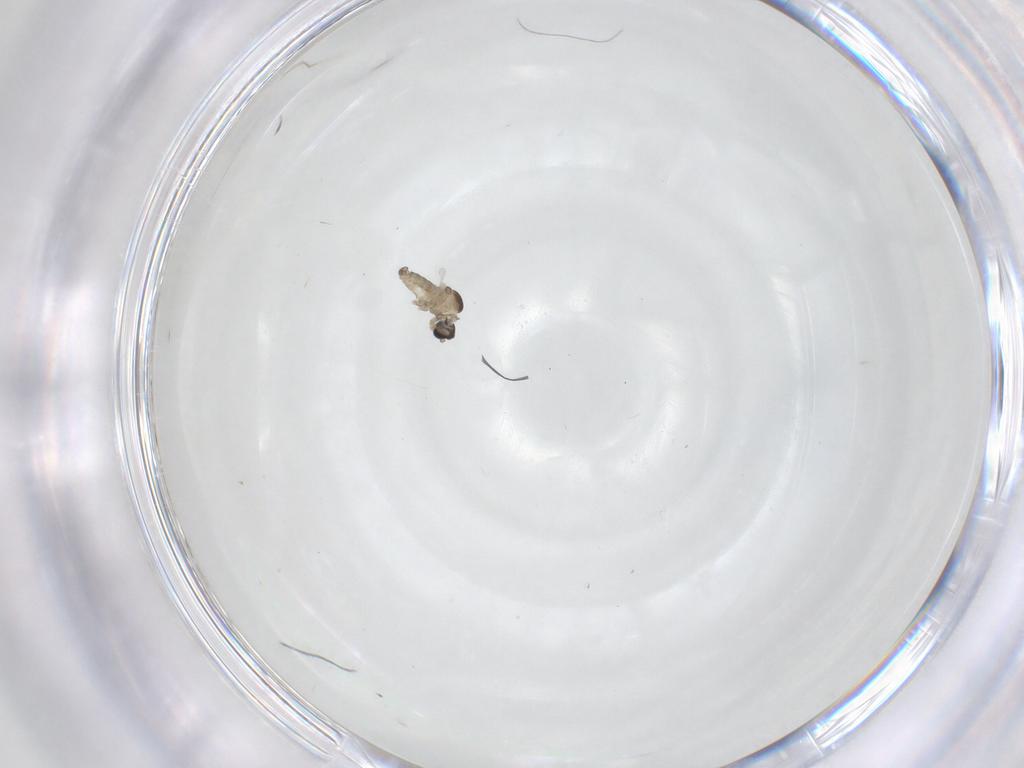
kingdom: Animalia
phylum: Arthropoda
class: Insecta
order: Diptera
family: Cecidomyiidae
